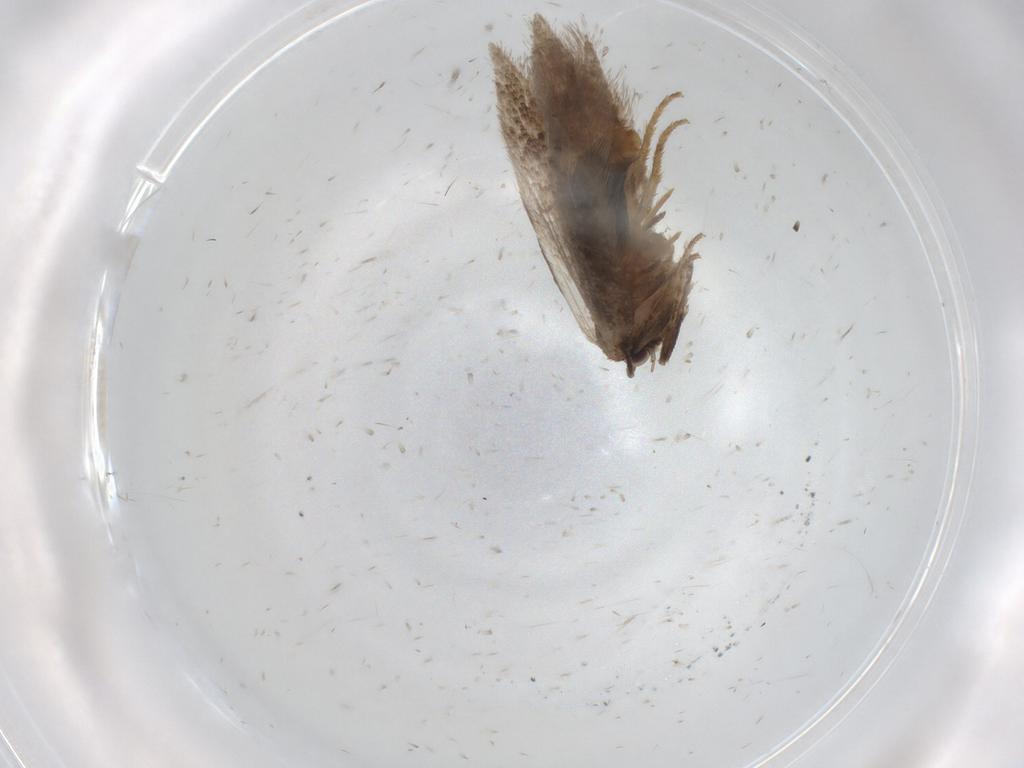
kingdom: Animalia
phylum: Arthropoda
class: Insecta
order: Lepidoptera
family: Nepticulidae
